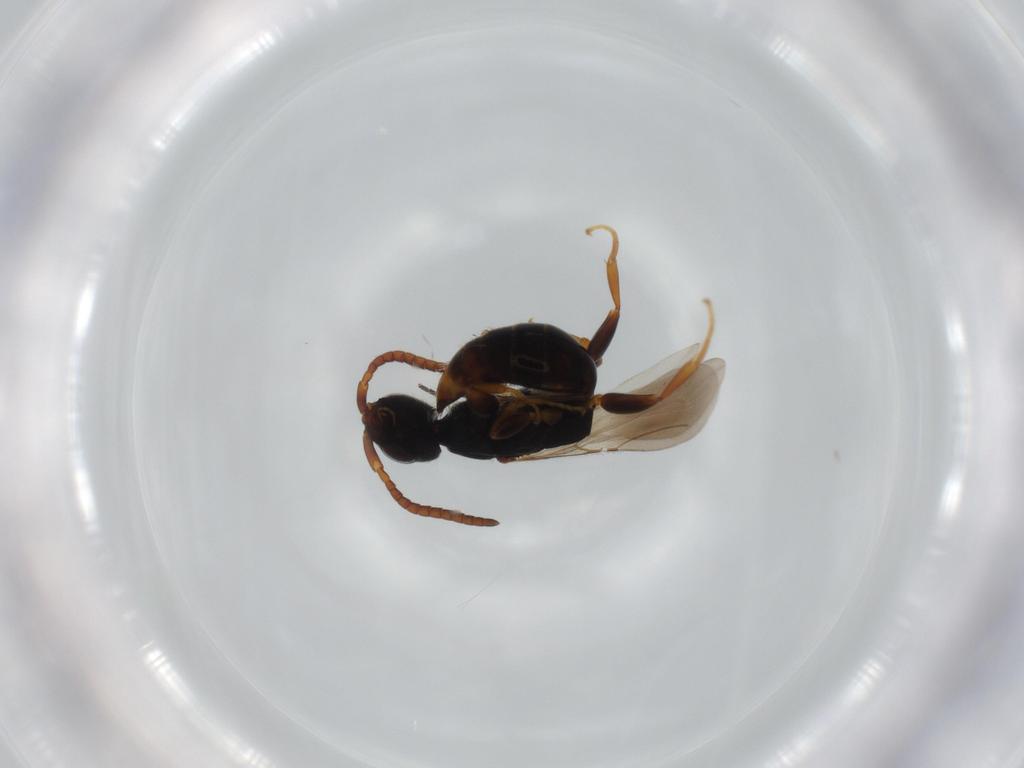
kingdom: Animalia
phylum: Arthropoda
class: Insecta
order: Hymenoptera
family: Bethylidae
